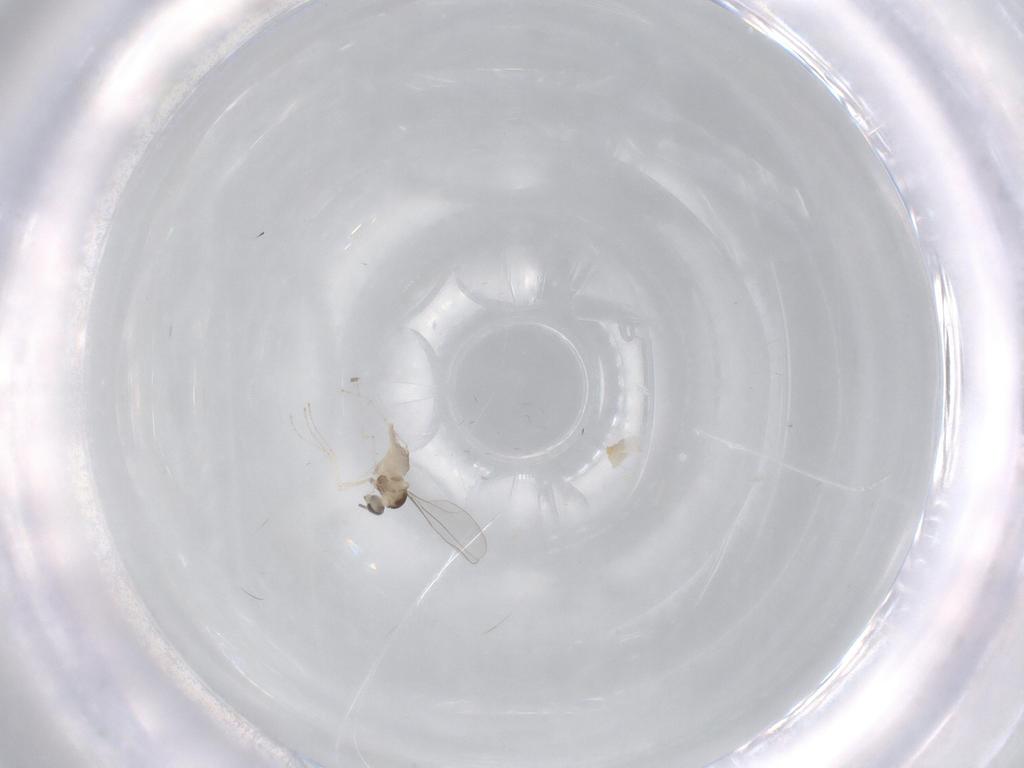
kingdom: Animalia
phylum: Arthropoda
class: Insecta
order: Diptera
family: Cecidomyiidae
